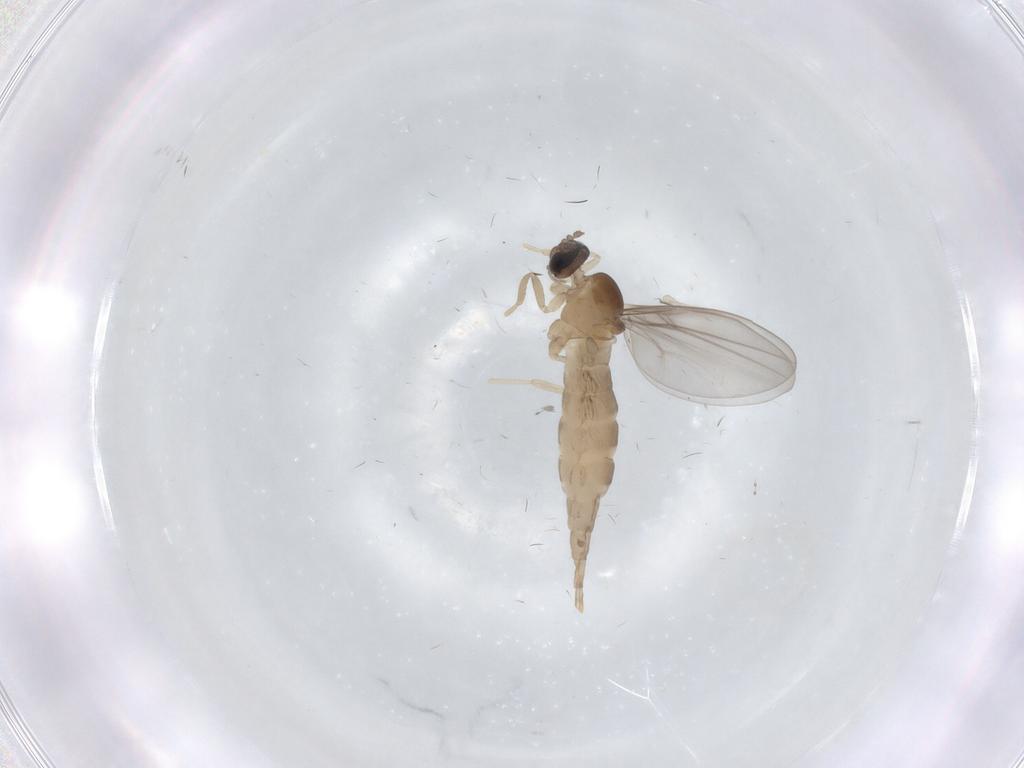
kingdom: Animalia
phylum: Arthropoda
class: Insecta
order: Diptera
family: Cecidomyiidae
